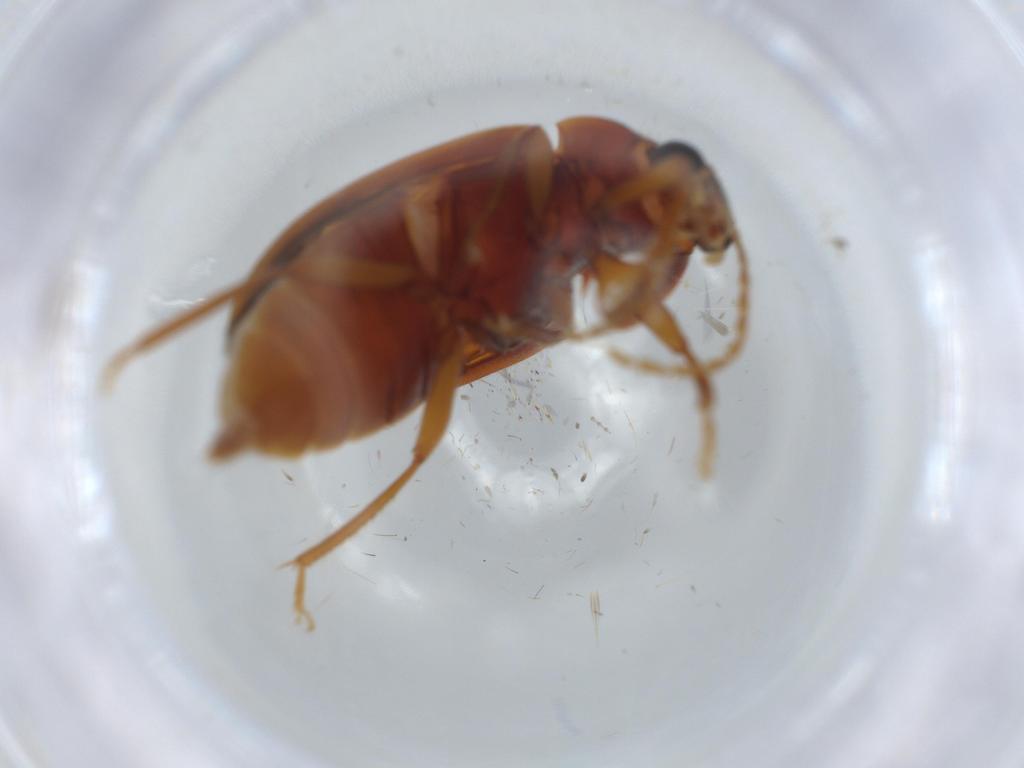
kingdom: Animalia
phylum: Arthropoda
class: Insecta
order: Coleoptera
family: Ptilodactylidae
